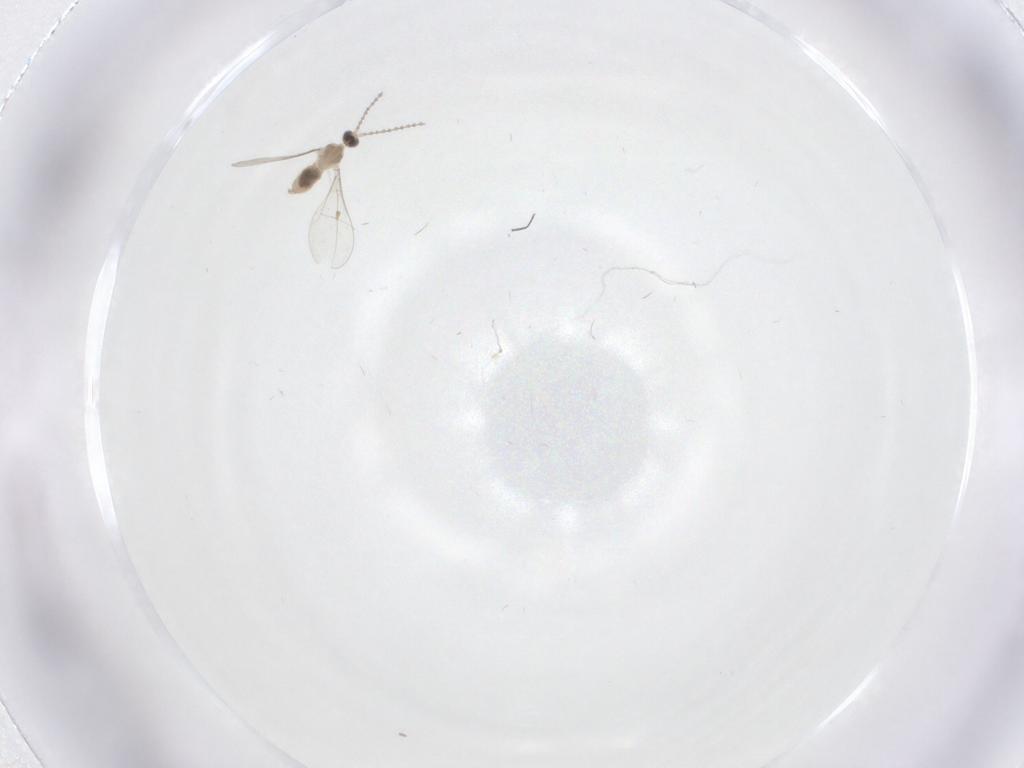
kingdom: Animalia
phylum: Arthropoda
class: Insecta
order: Diptera
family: Cecidomyiidae
